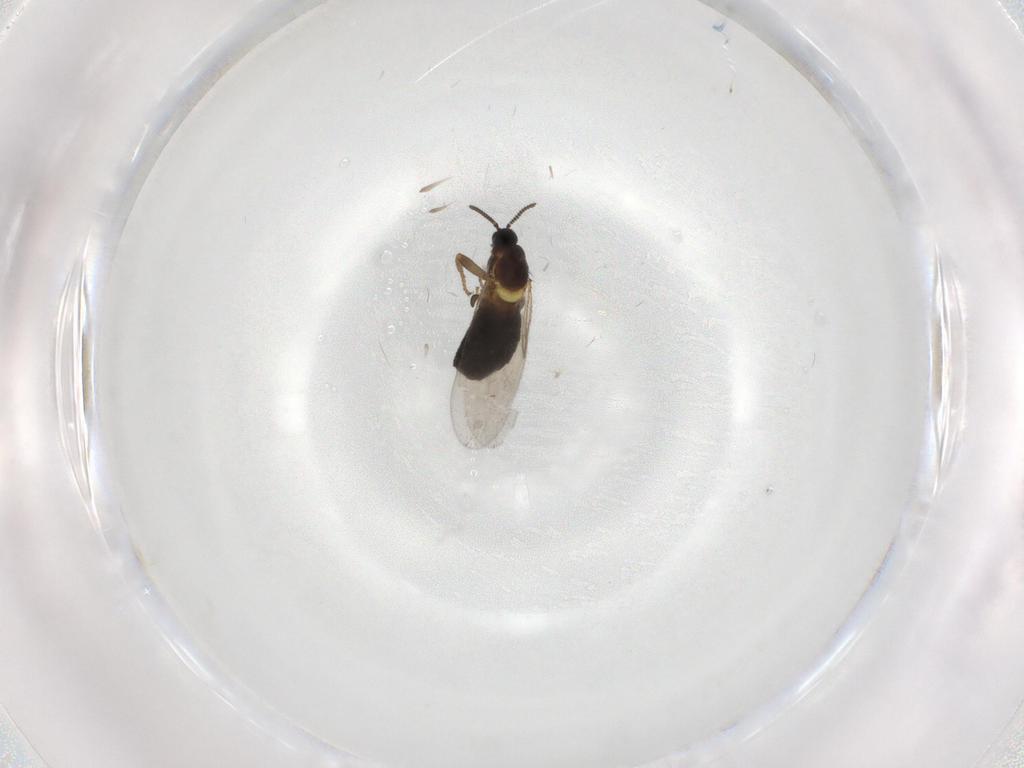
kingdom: Animalia
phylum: Arthropoda
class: Insecta
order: Diptera
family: Scatopsidae
